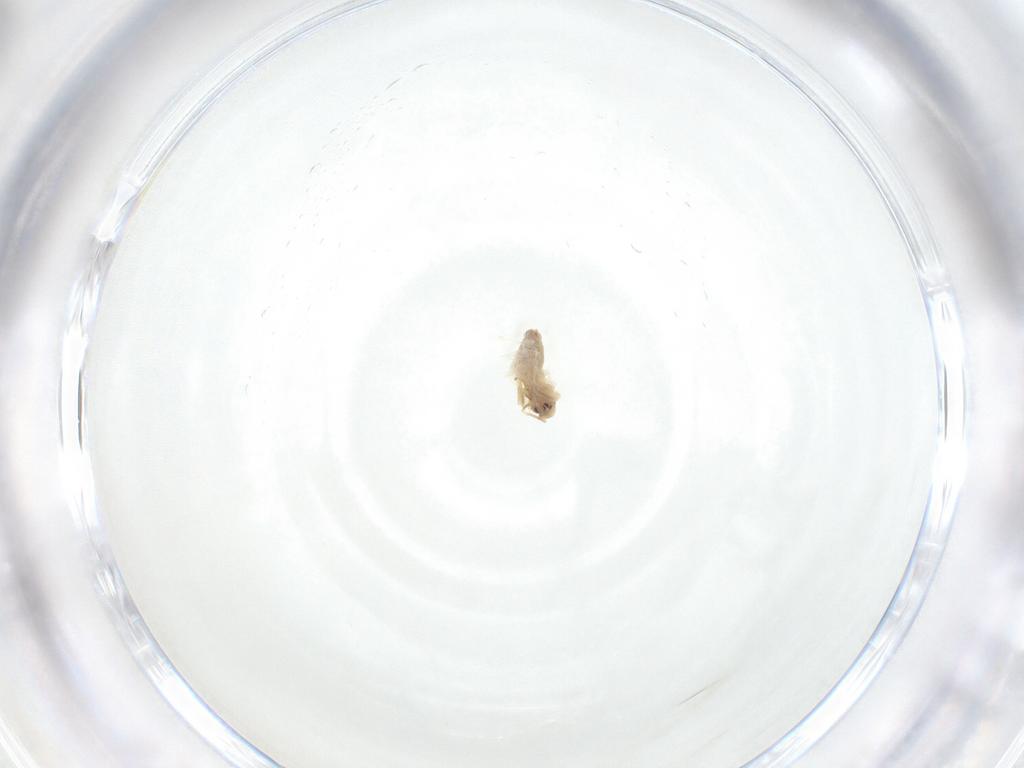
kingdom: Animalia
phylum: Arthropoda
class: Insecta
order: Hemiptera
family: Aleyrodidae
